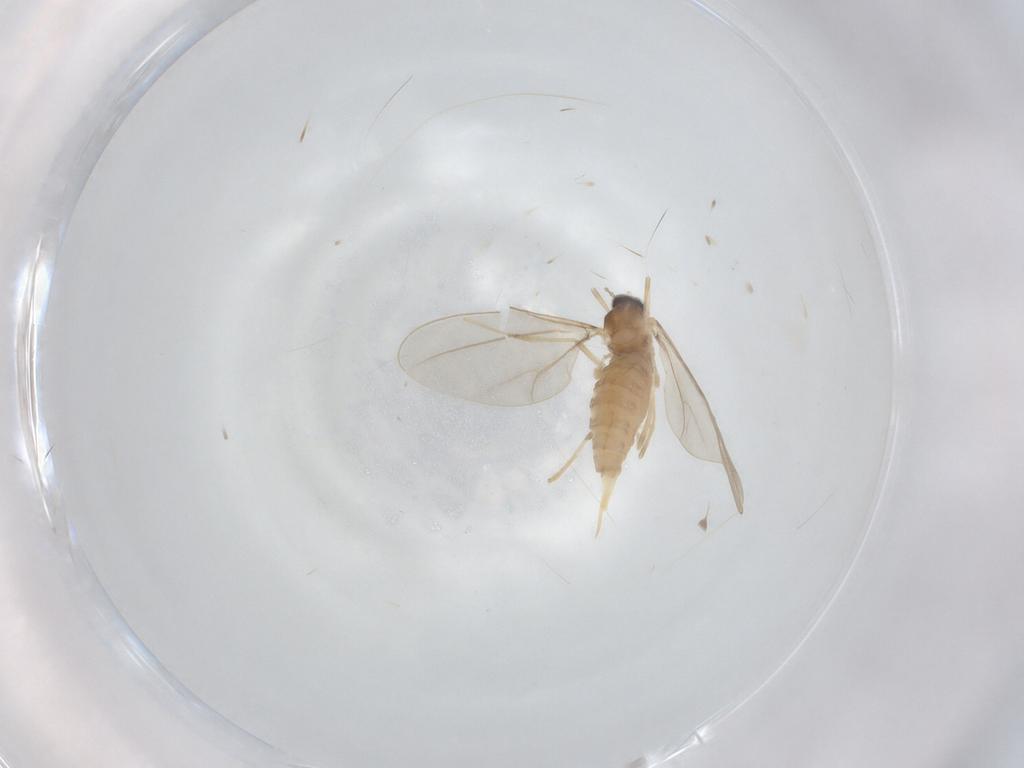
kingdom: Animalia
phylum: Arthropoda
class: Insecta
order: Diptera
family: Cecidomyiidae
